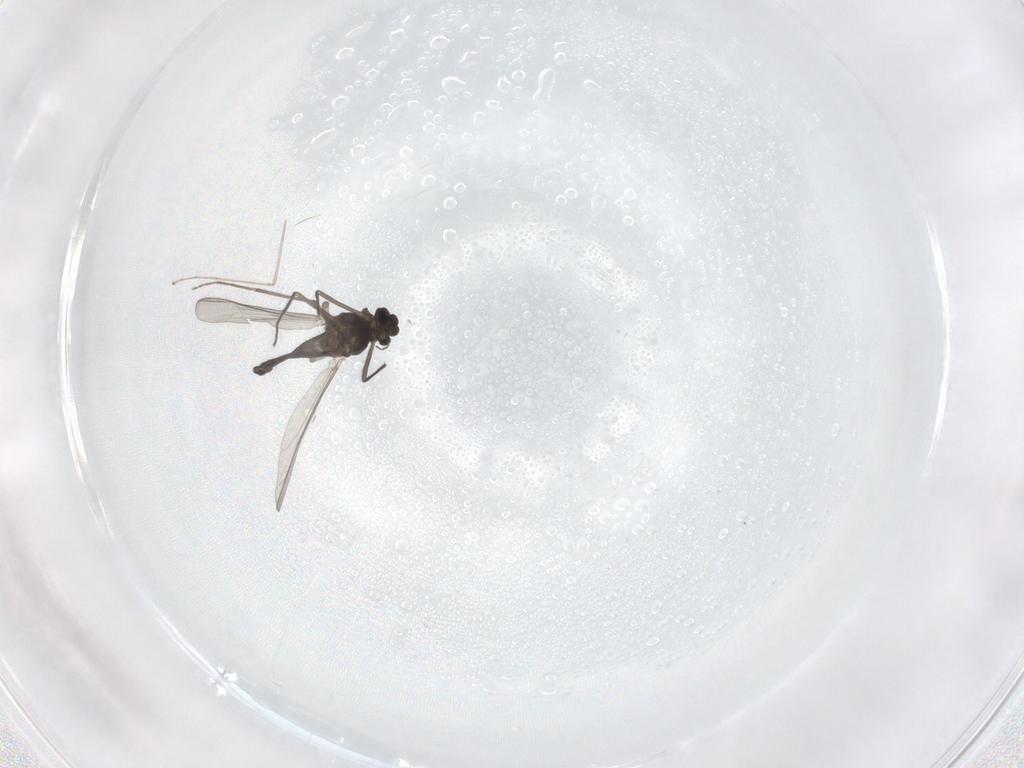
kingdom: Animalia
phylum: Arthropoda
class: Insecta
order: Diptera
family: Chironomidae
